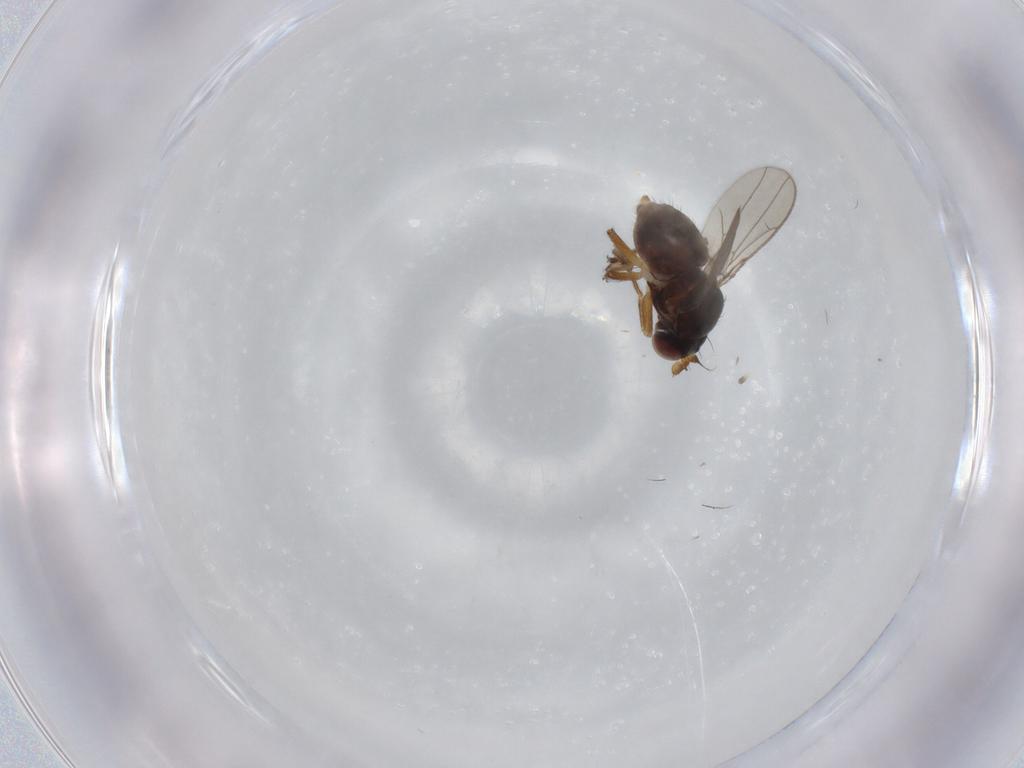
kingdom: Animalia
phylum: Arthropoda
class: Insecta
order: Diptera
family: Ephydridae
